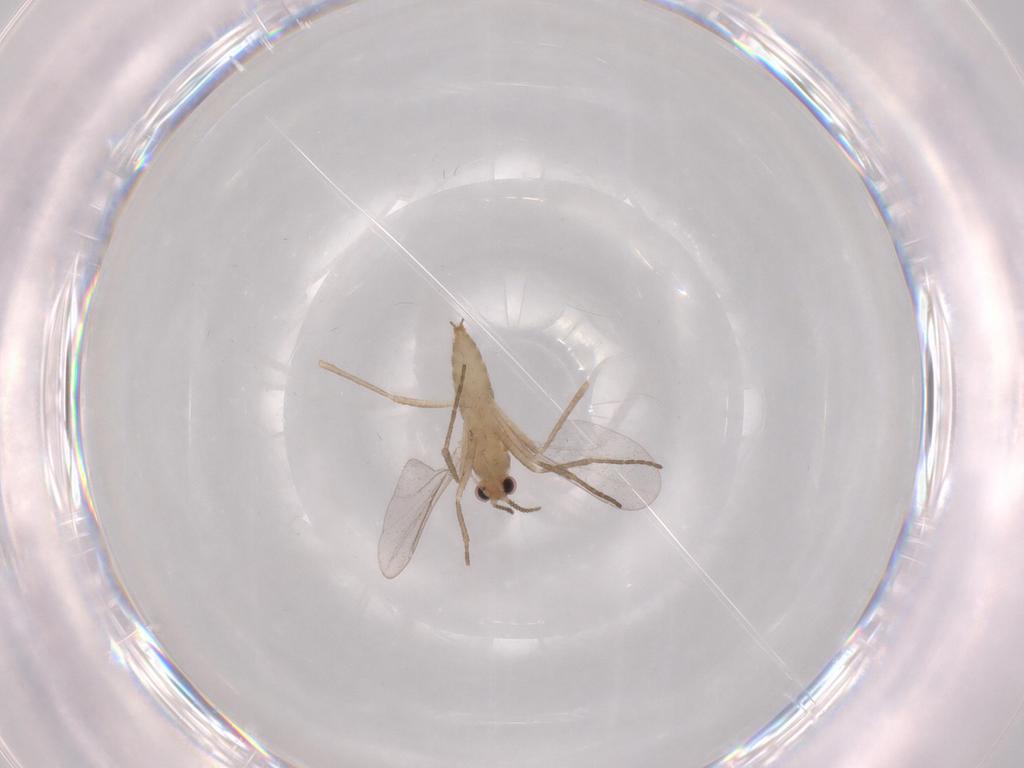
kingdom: Animalia
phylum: Arthropoda
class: Insecta
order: Diptera
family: Cecidomyiidae
